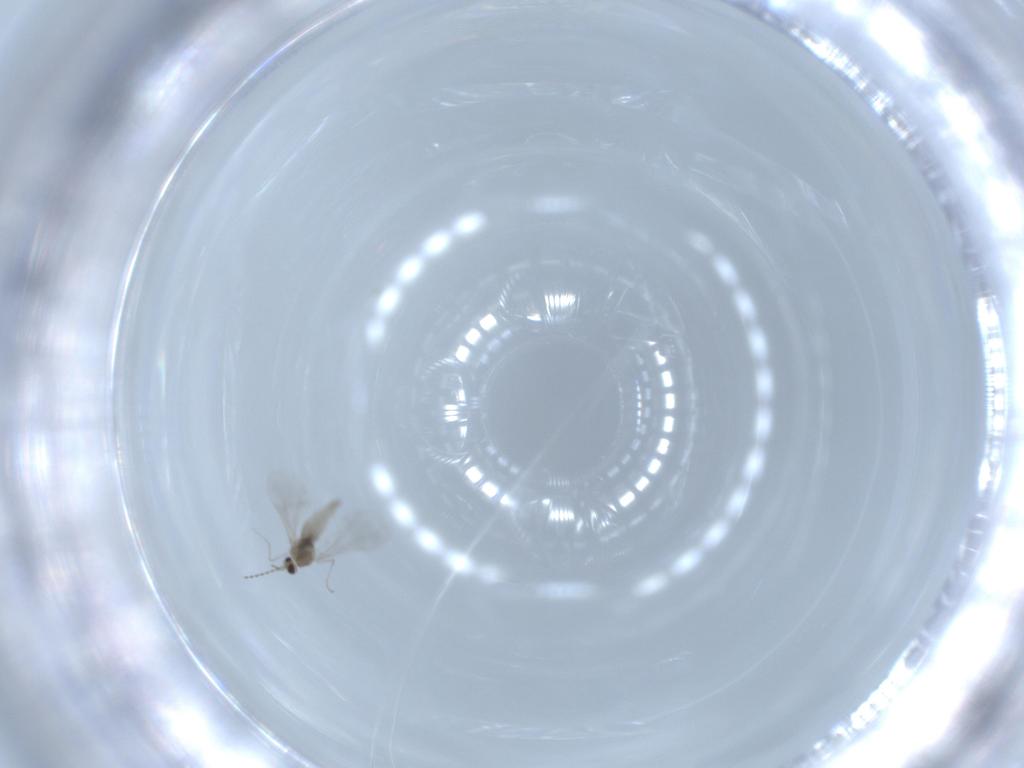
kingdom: Animalia
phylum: Arthropoda
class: Insecta
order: Diptera
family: Cecidomyiidae
